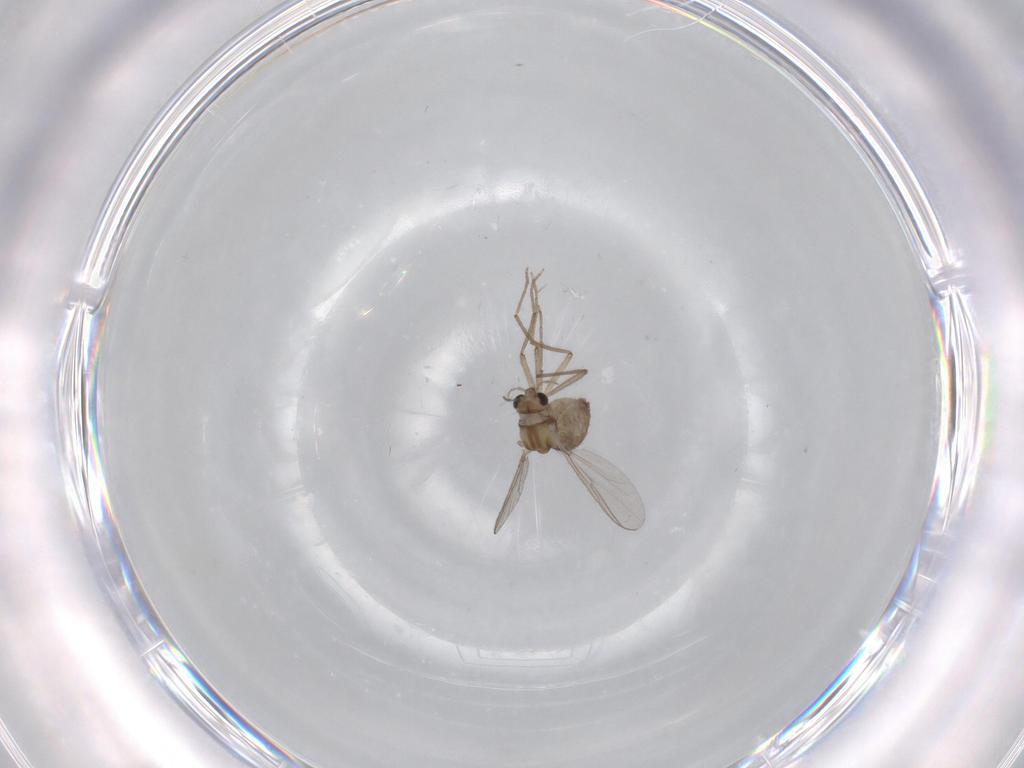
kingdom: Animalia
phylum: Arthropoda
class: Insecta
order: Diptera
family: Chironomidae
